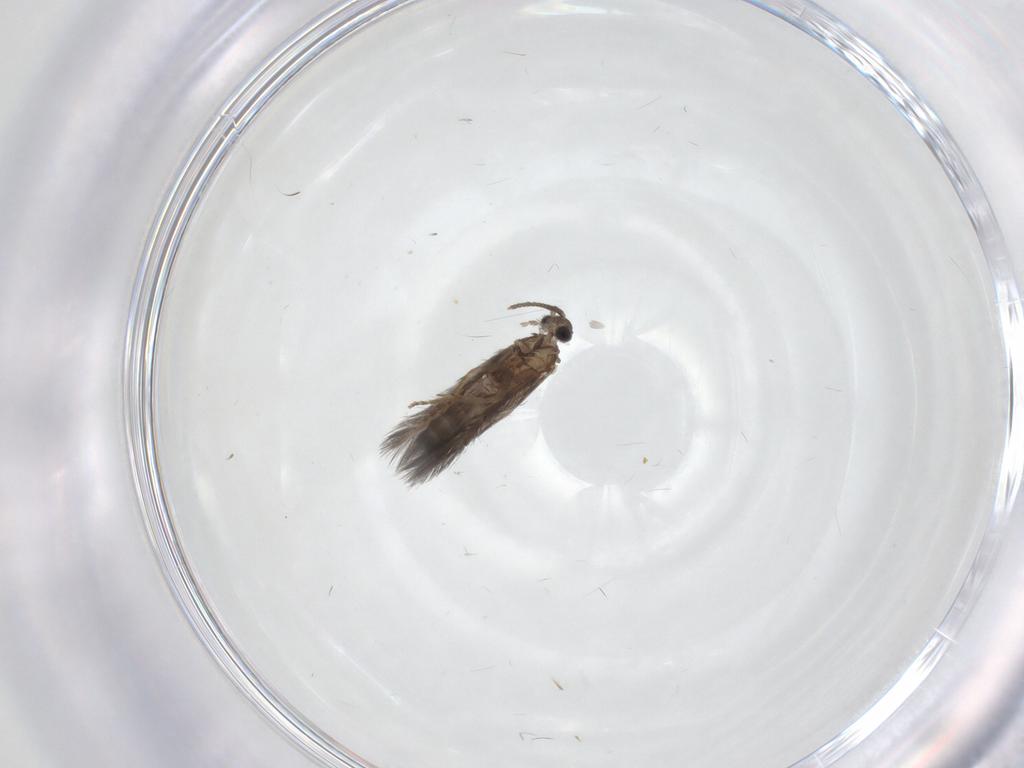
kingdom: Animalia
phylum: Arthropoda
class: Insecta
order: Trichoptera
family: Hydroptilidae
